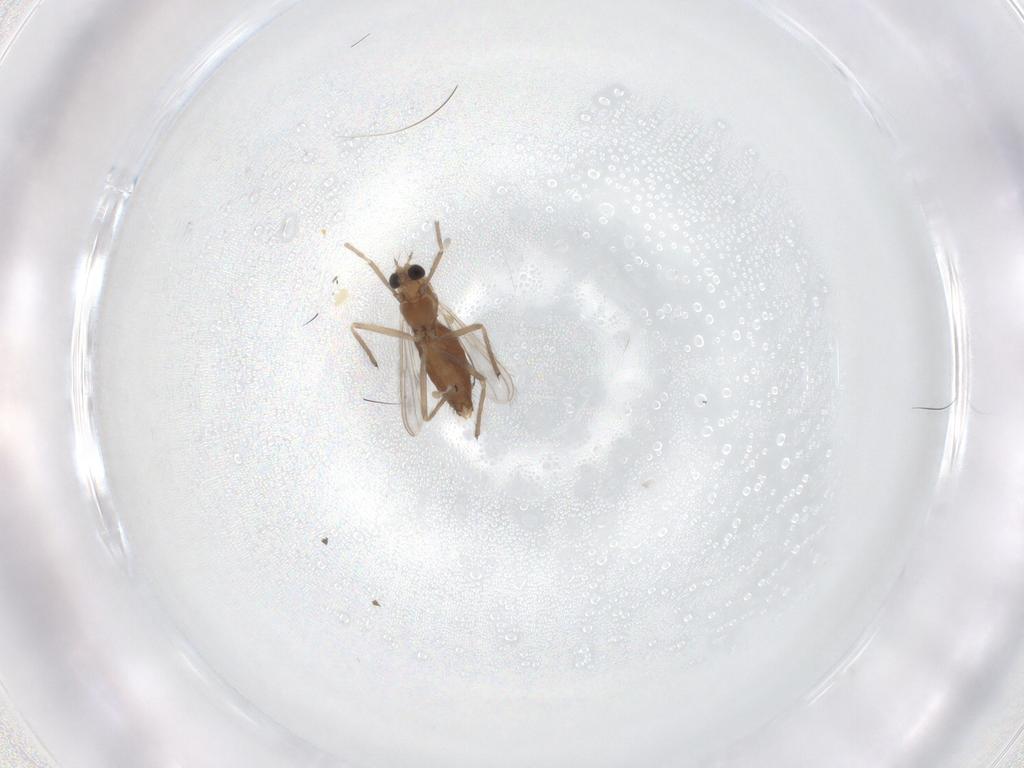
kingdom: Animalia
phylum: Arthropoda
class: Insecta
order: Diptera
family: Chironomidae
